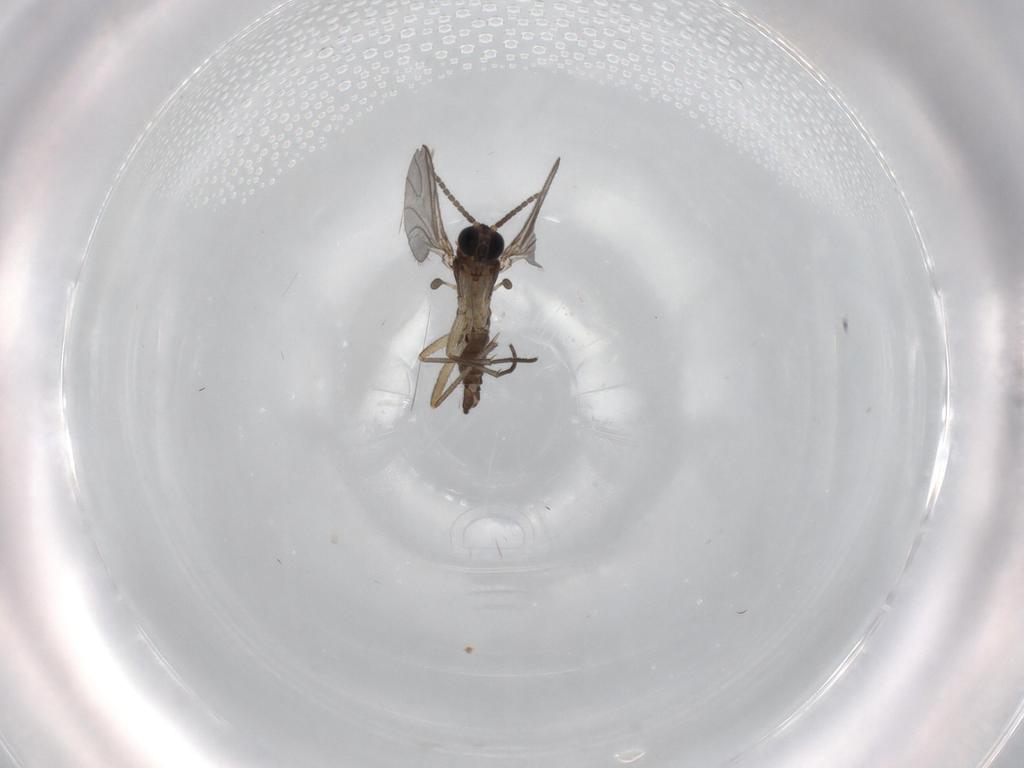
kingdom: Animalia
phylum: Arthropoda
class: Insecta
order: Diptera
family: Sciaridae
